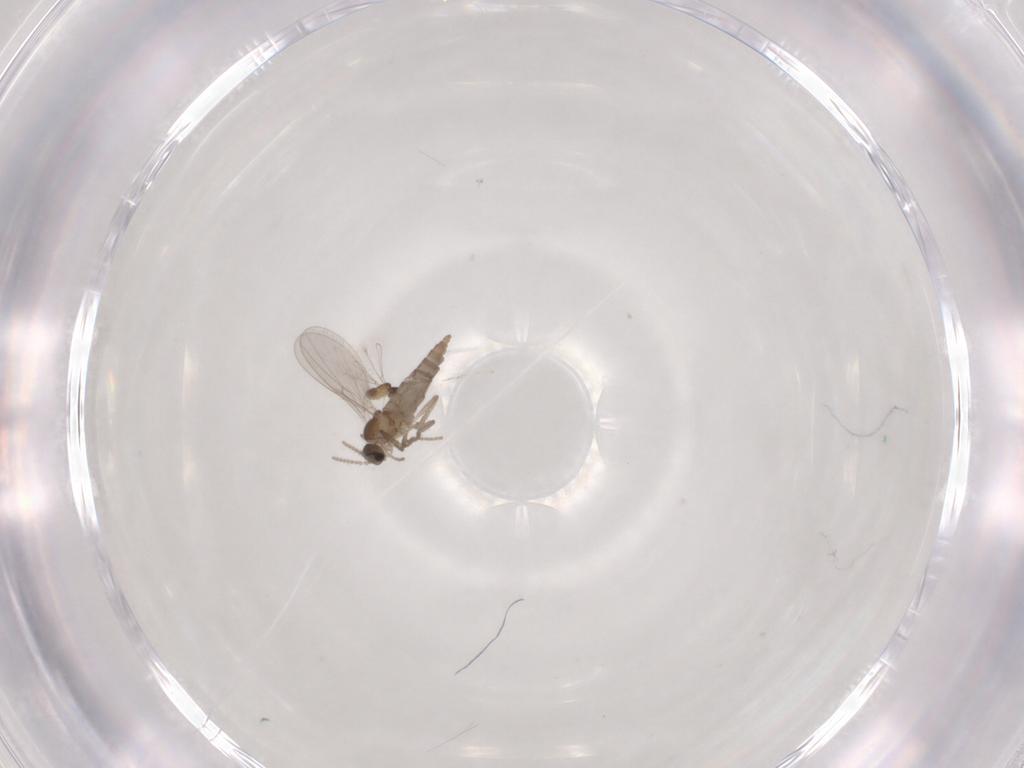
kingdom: Animalia
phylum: Arthropoda
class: Insecta
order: Diptera
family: Cecidomyiidae
